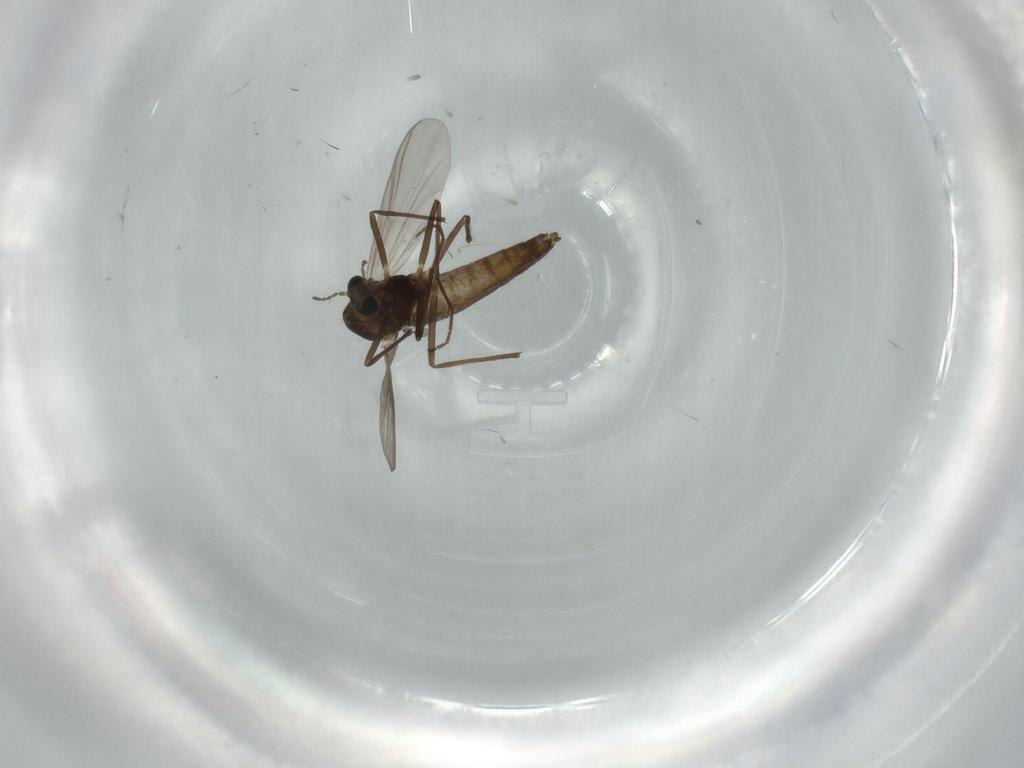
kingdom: Animalia
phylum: Arthropoda
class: Insecta
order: Diptera
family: Chironomidae
